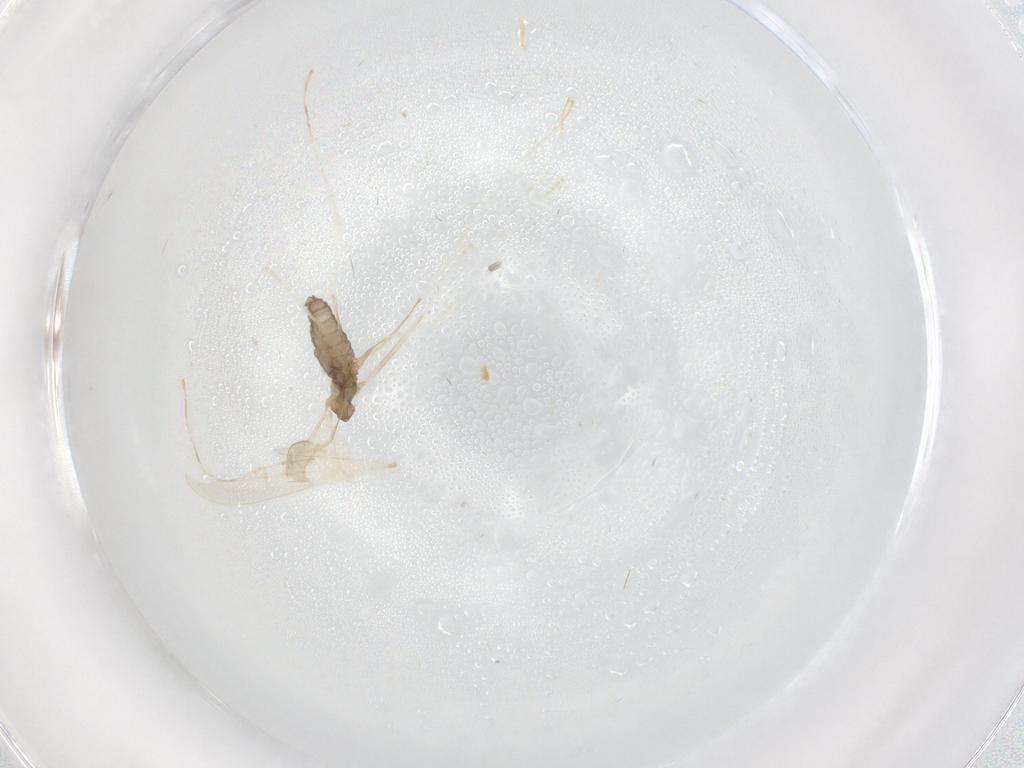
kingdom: Animalia
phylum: Arthropoda
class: Insecta
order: Diptera
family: Cecidomyiidae
